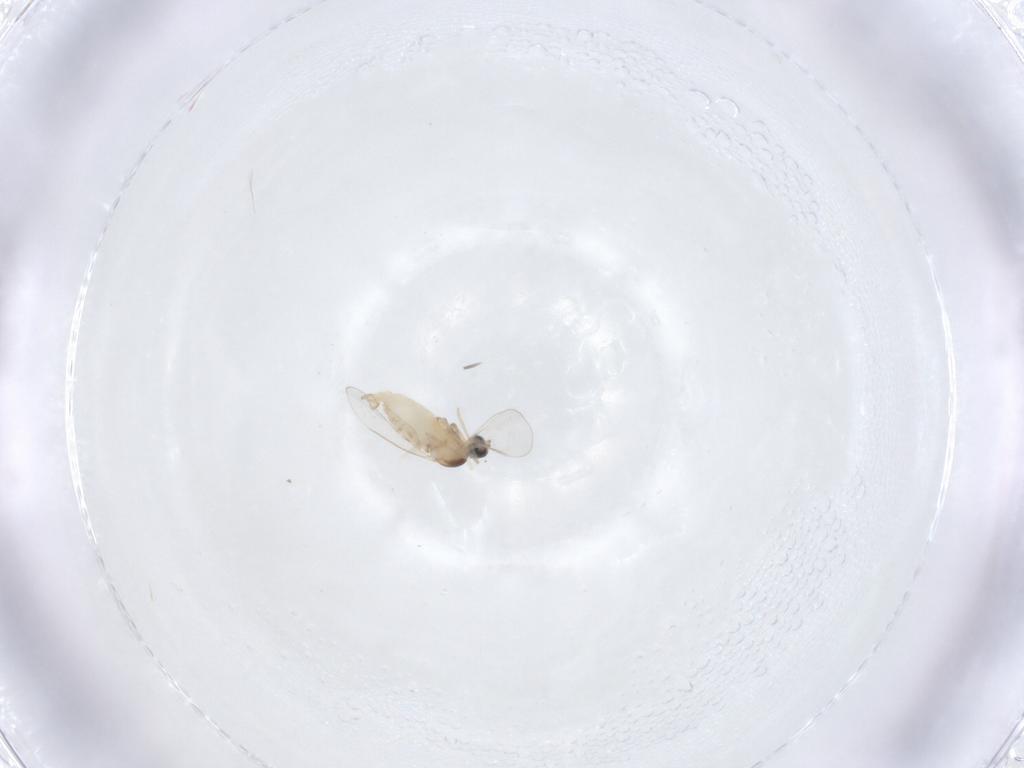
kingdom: Animalia
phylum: Arthropoda
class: Insecta
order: Diptera
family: Cecidomyiidae
